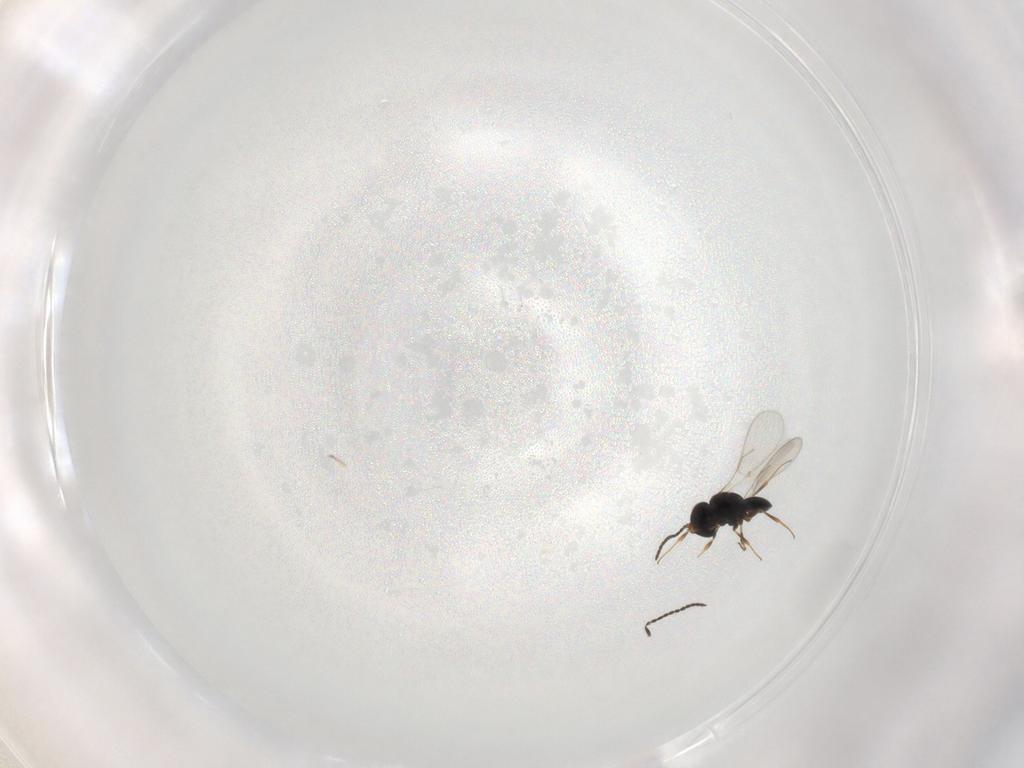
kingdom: Animalia
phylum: Arthropoda
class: Insecta
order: Hymenoptera
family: Scelionidae
